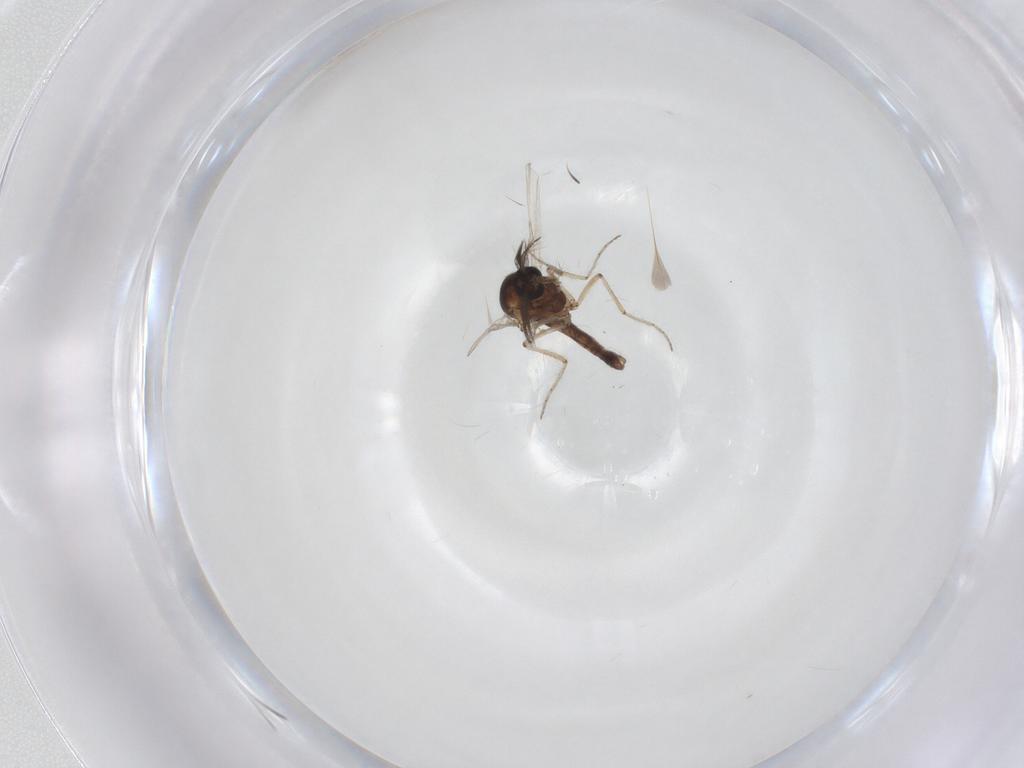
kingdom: Animalia
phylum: Arthropoda
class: Insecta
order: Diptera
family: Ceratopogonidae
